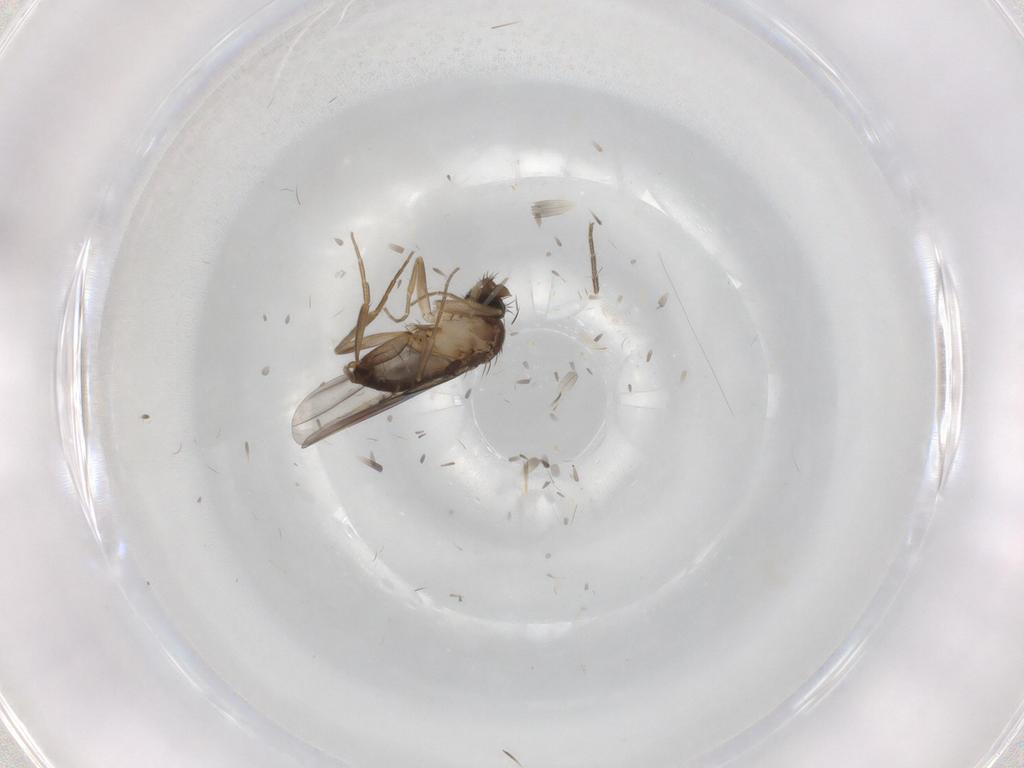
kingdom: Animalia
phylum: Arthropoda
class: Insecta
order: Diptera
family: Phoridae
